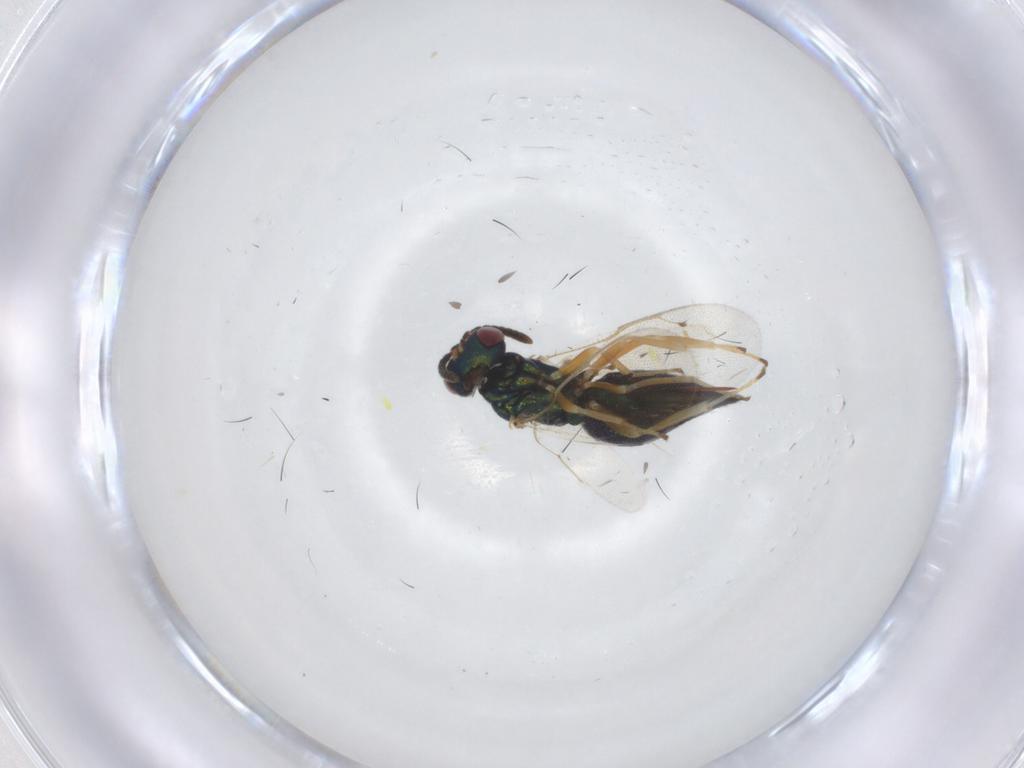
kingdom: Animalia
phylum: Arthropoda
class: Insecta
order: Hymenoptera
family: Pteromalidae
